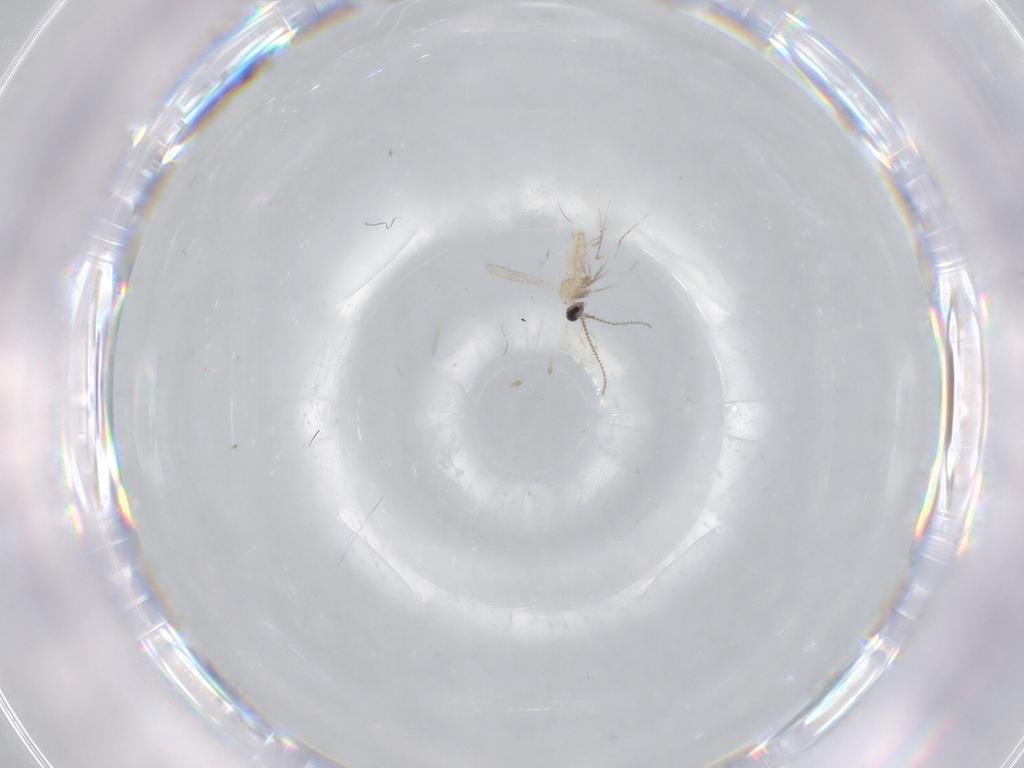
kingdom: Animalia
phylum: Arthropoda
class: Insecta
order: Diptera
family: Cecidomyiidae
